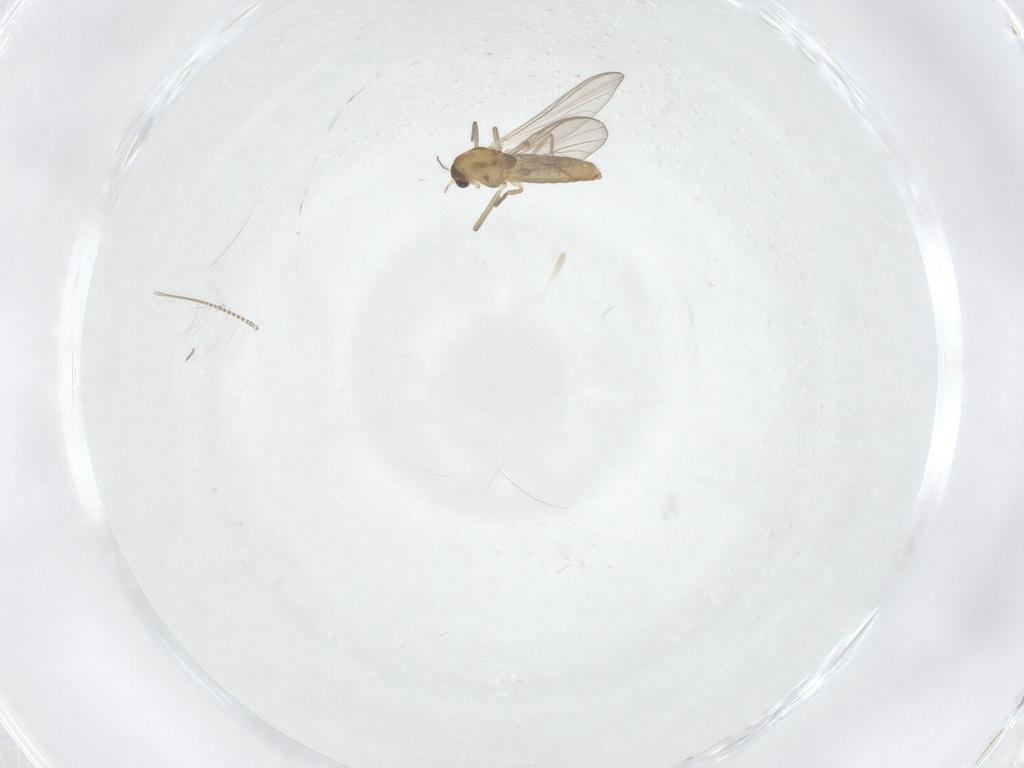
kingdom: Animalia
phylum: Arthropoda
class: Insecta
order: Diptera
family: Chironomidae
